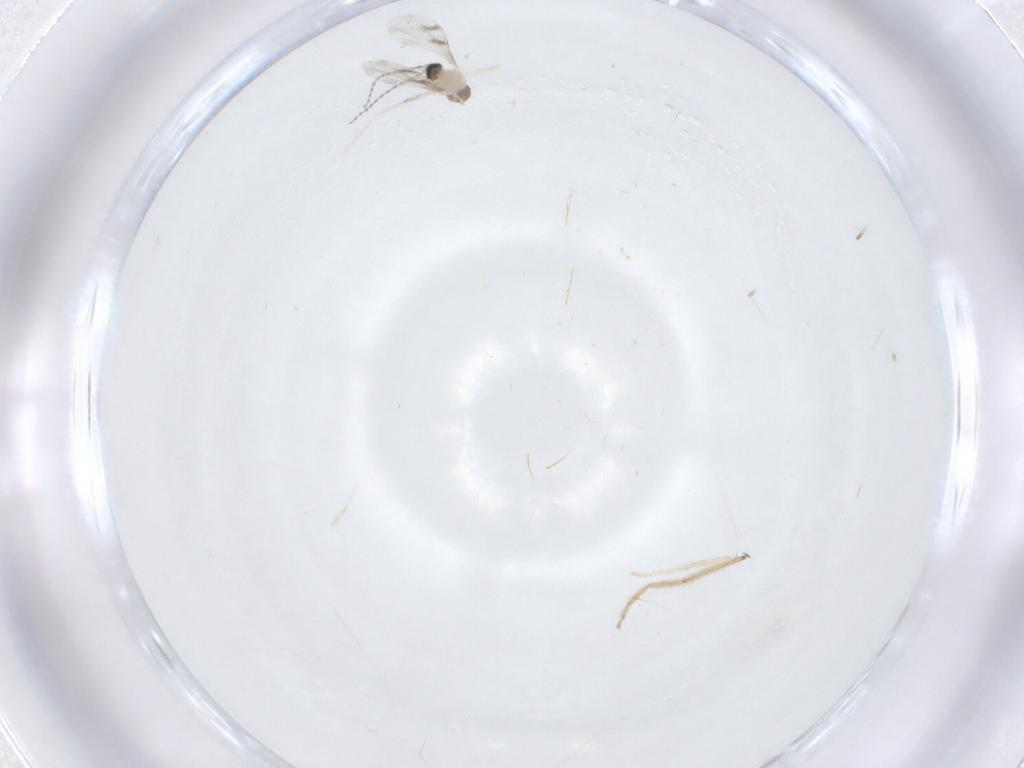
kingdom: Animalia
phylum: Arthropoda
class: Insecta
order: Diptera
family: Cecidomyiidae
